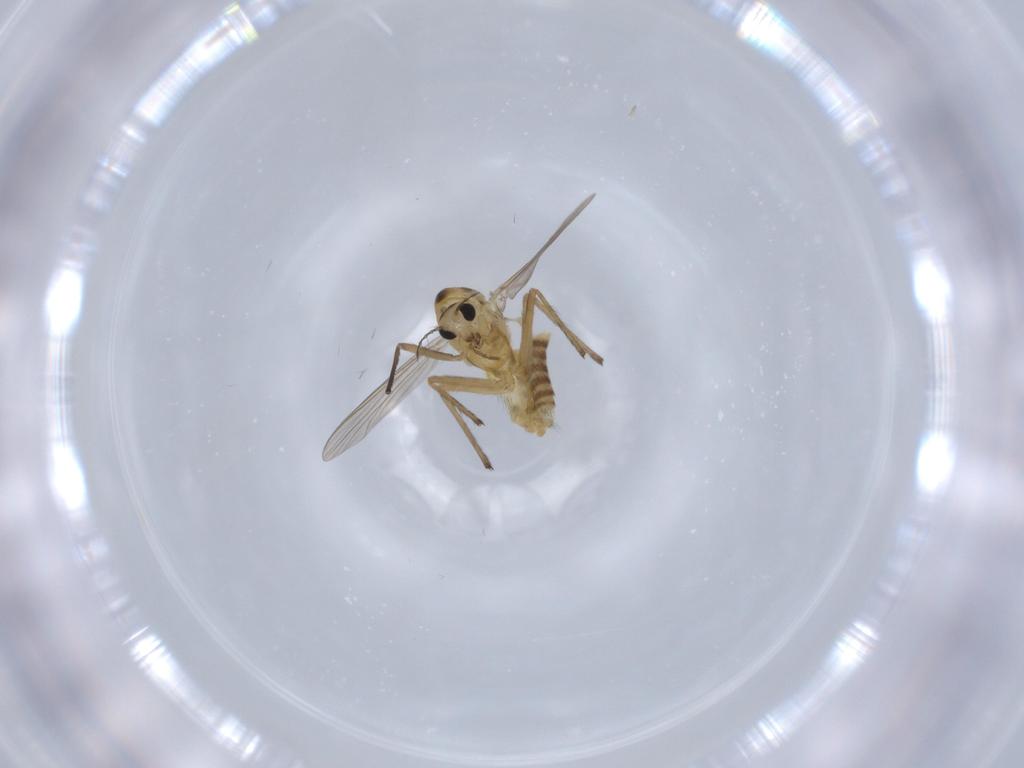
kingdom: Animalia
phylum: Arthropoda
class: Insecta
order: Diptera
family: Chironomidae
